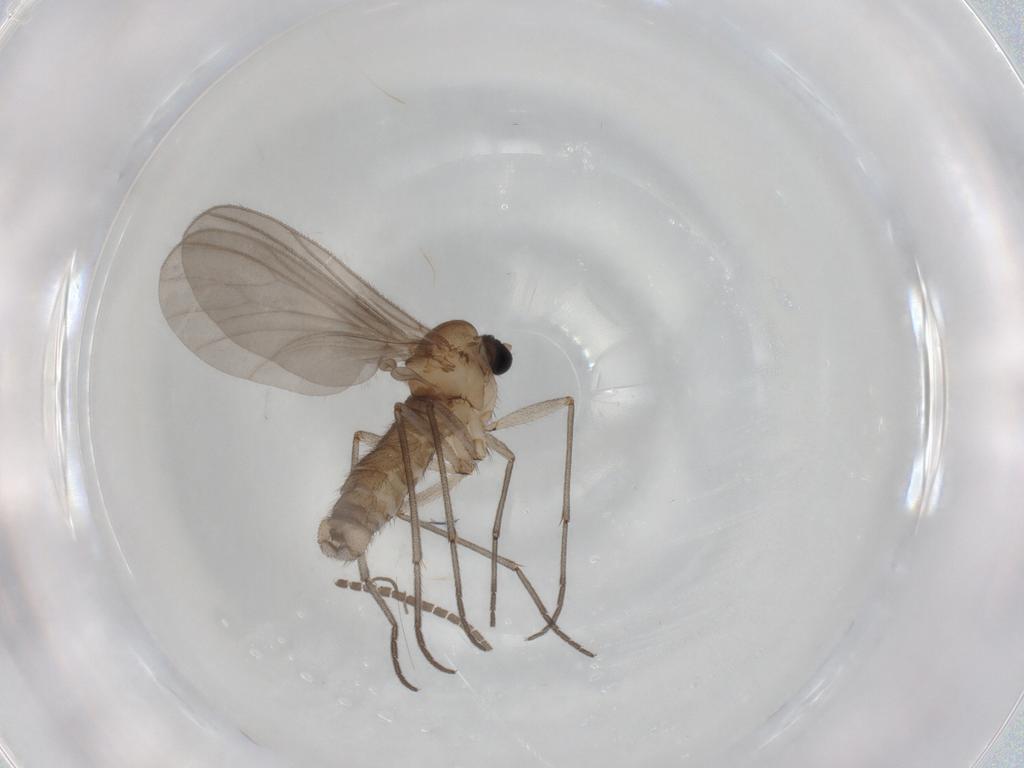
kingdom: Animalia
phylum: Arthropoda
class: Insecta
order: Diptera
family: Sciaridae
